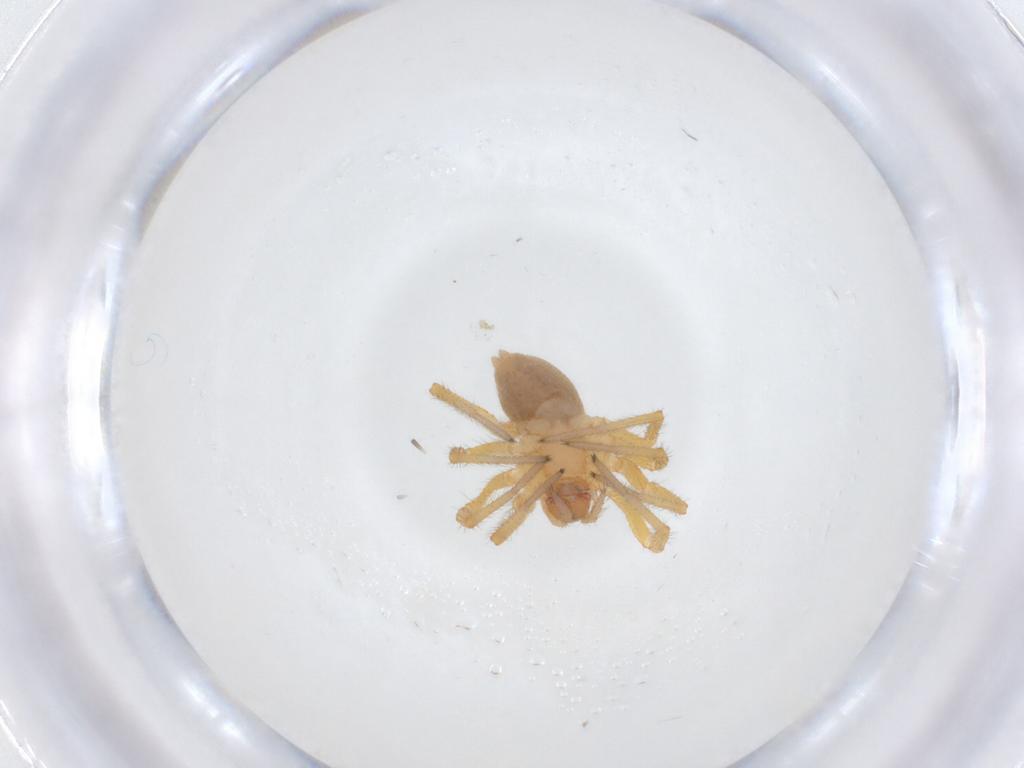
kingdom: Animalia
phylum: Arthropoda
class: Arachnida
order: Araneae
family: Linyphiidae
